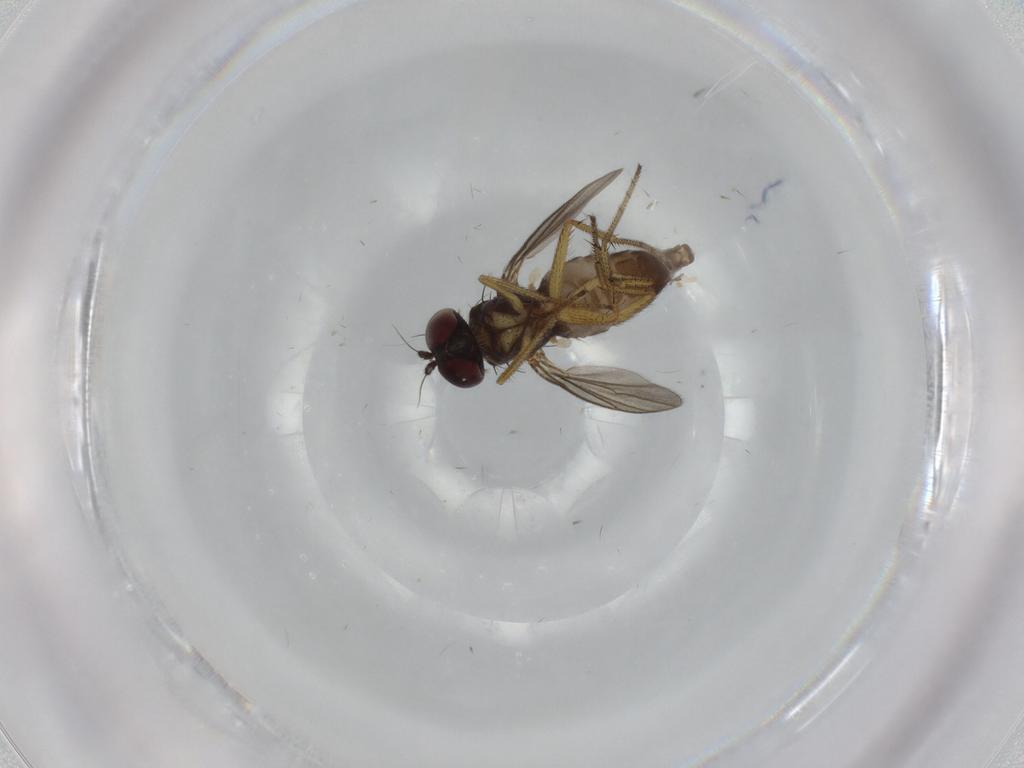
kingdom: Animalia
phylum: Arthropoda
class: Insecta
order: Diptera
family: Dolichopodidae
